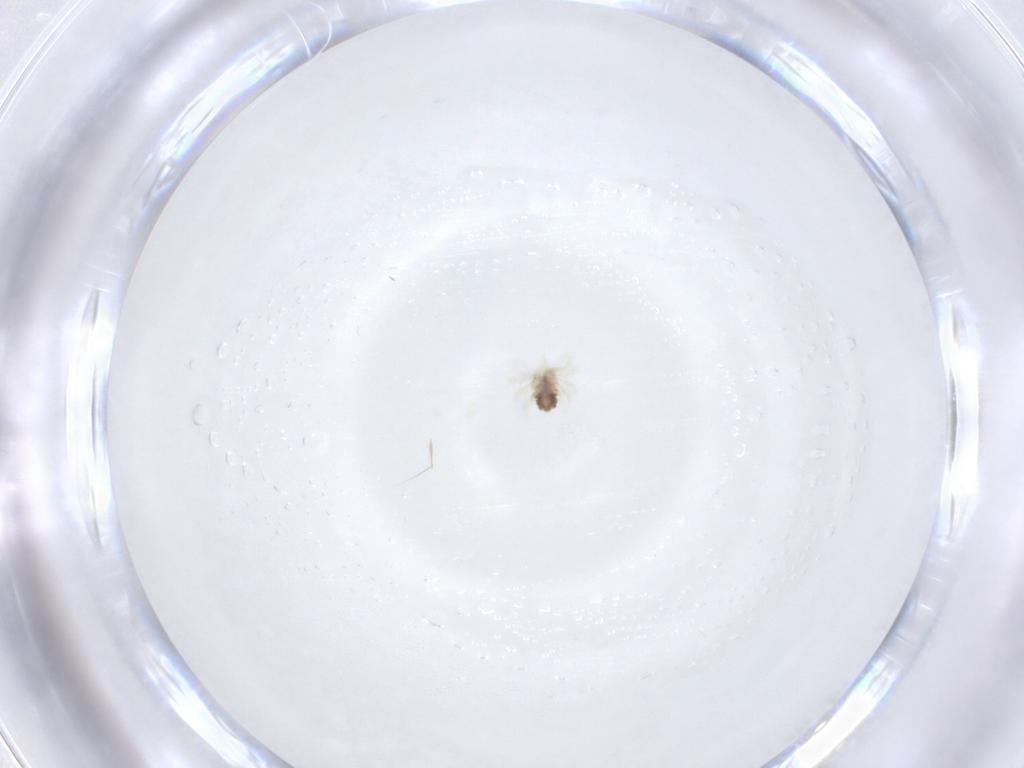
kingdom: Animalia
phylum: Arthropoda
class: Arachnida
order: Trombidiformes
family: Anystidae
